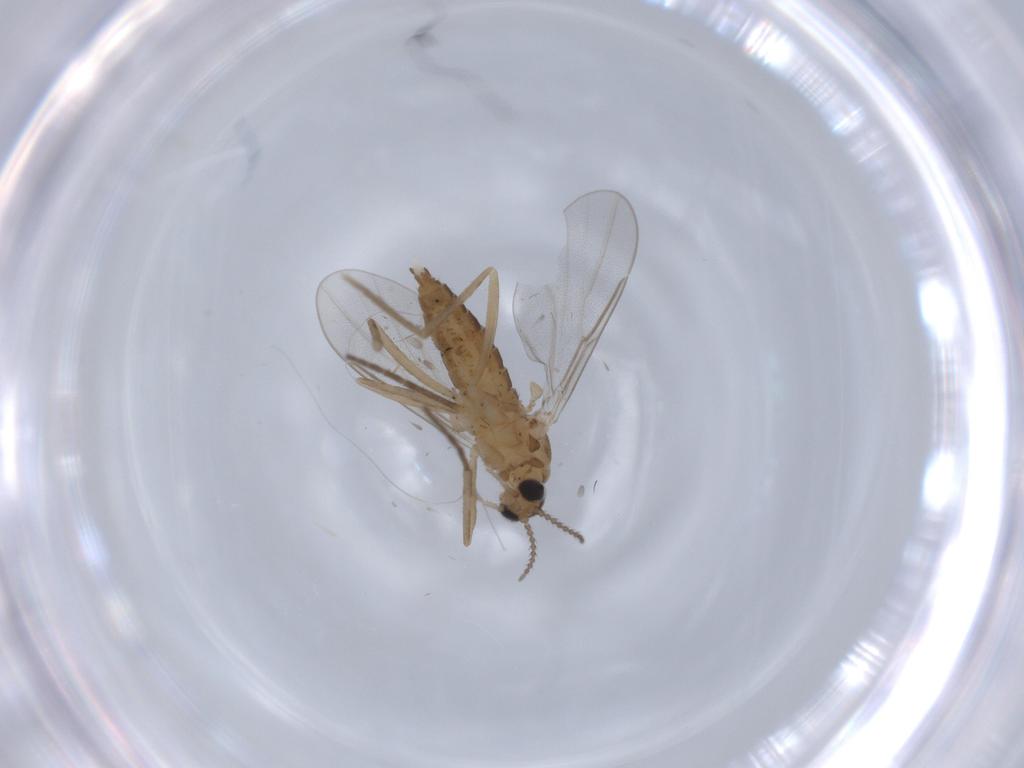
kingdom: Animalia
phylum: Arthropoda
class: Insecta
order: Diptera
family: Cecidomyiidae
